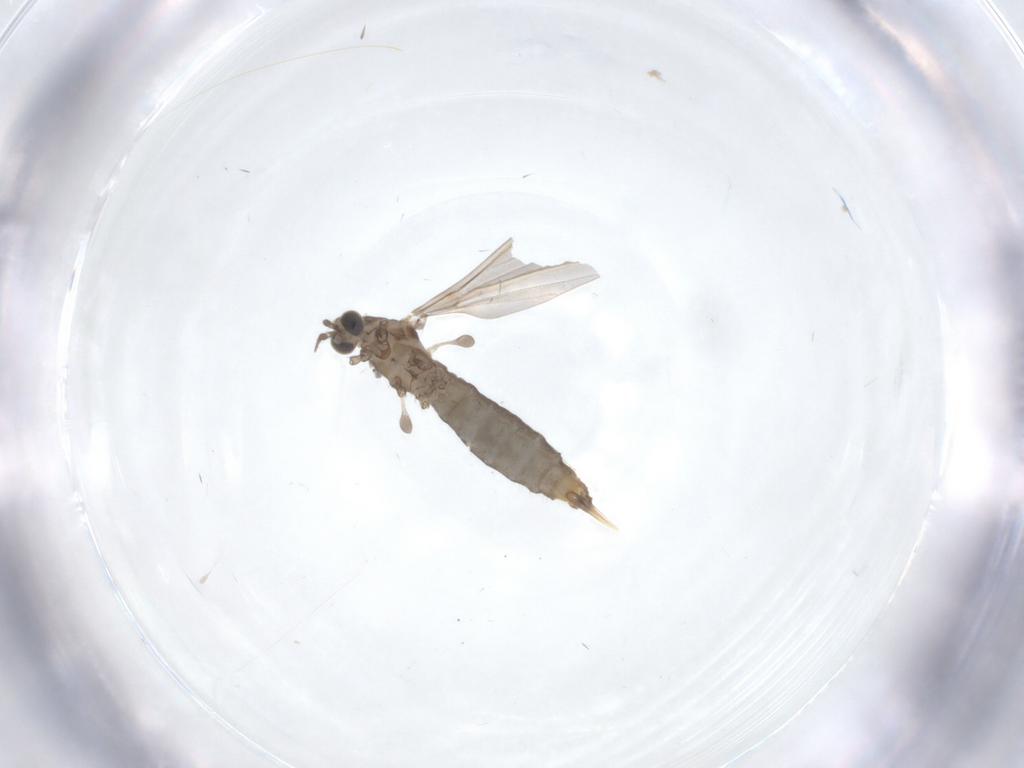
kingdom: Animalia
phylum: Arthropoda
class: Insecta
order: Diptera
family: Limoniidae
